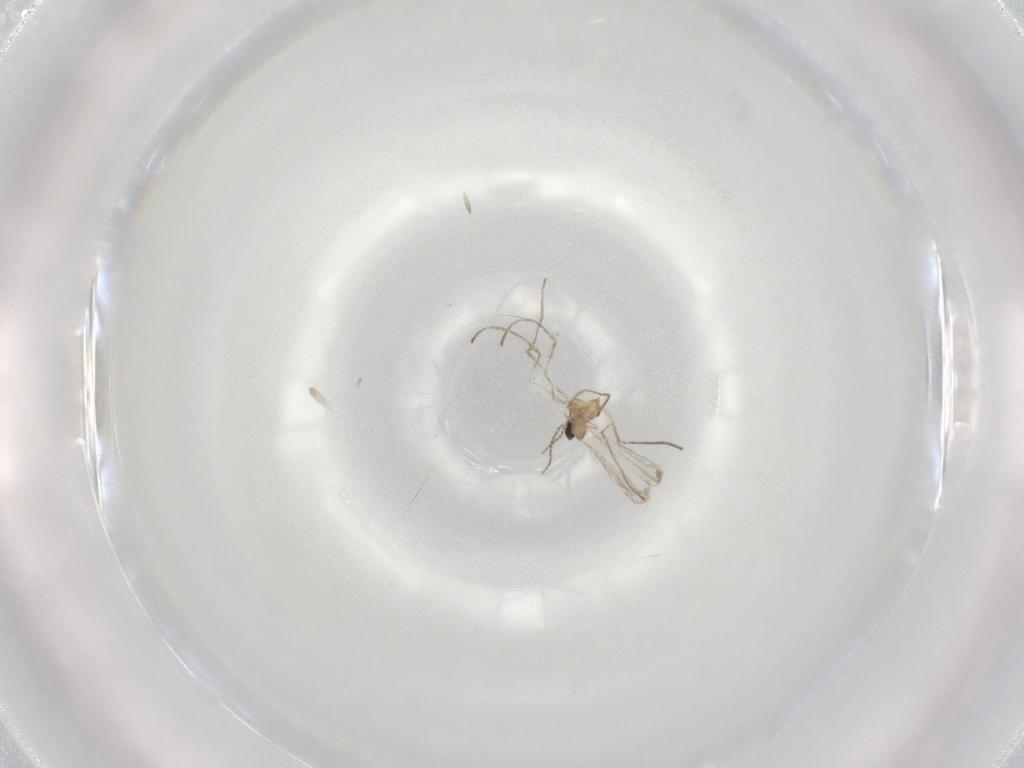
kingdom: Animalia
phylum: Arthropoda
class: Insecta
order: Diptera
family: Cecidomyiidae
